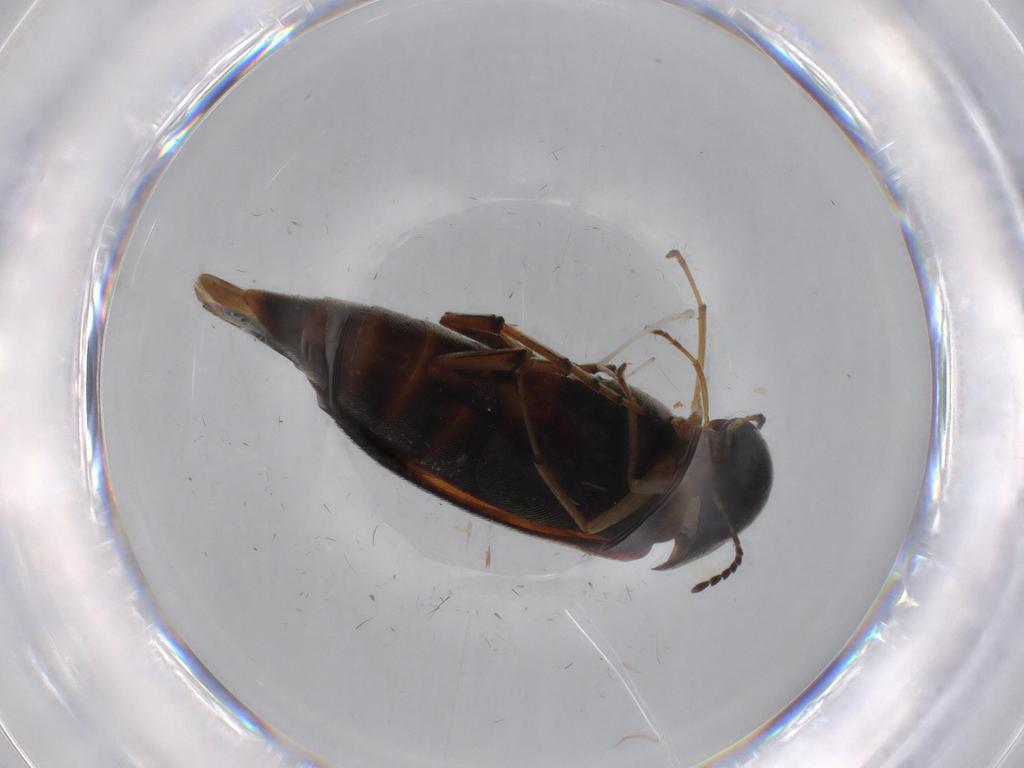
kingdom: Animalia
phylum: Arthropoda
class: Insecta
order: Coleoptera
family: Mordellidae
